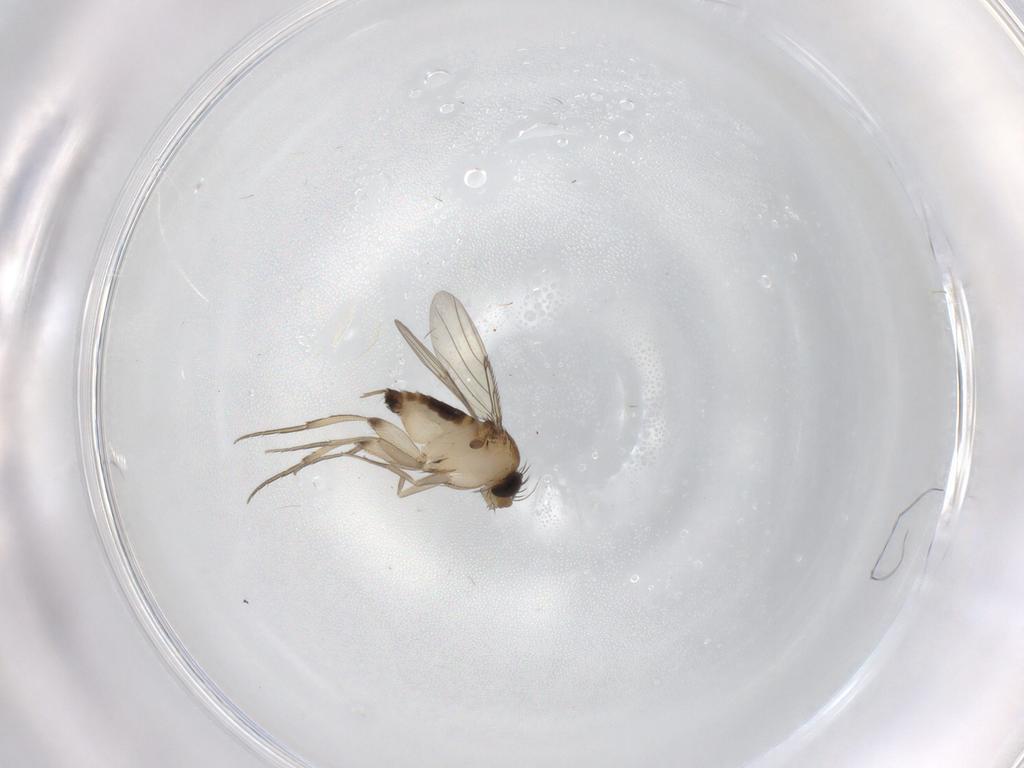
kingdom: Animalia
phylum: Arthropoda
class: Insecta
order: Diptera
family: Phoridae
